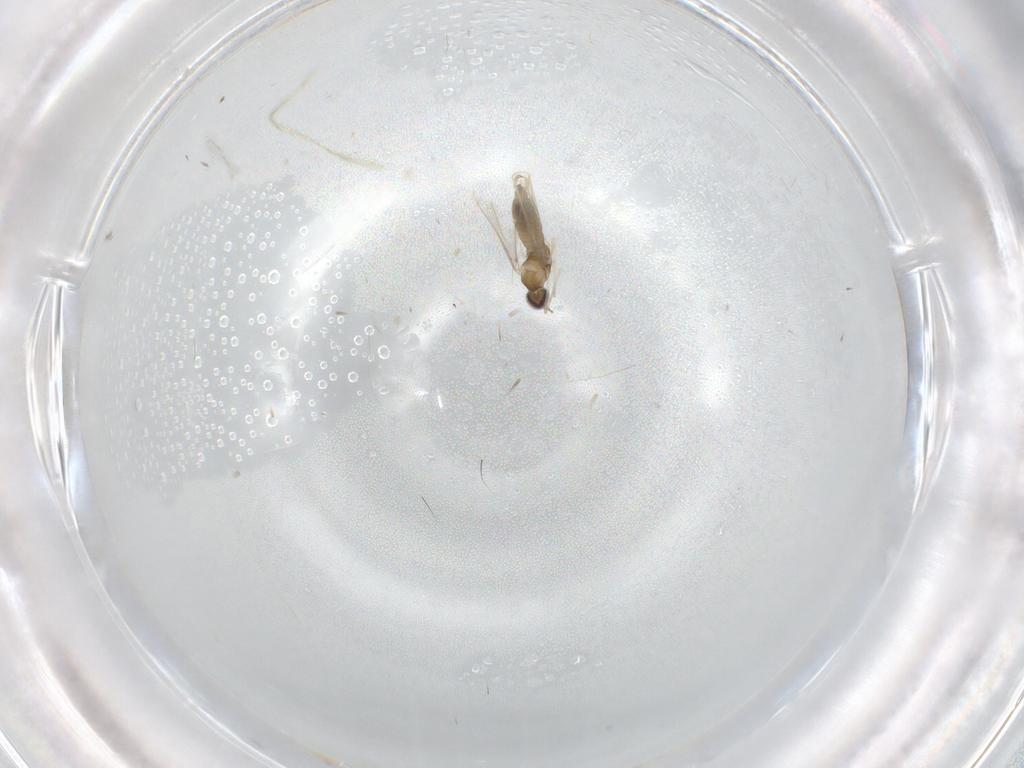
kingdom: Animalia
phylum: Arthropoda
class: Insecta
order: Diptera
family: Cecidomyiidae
